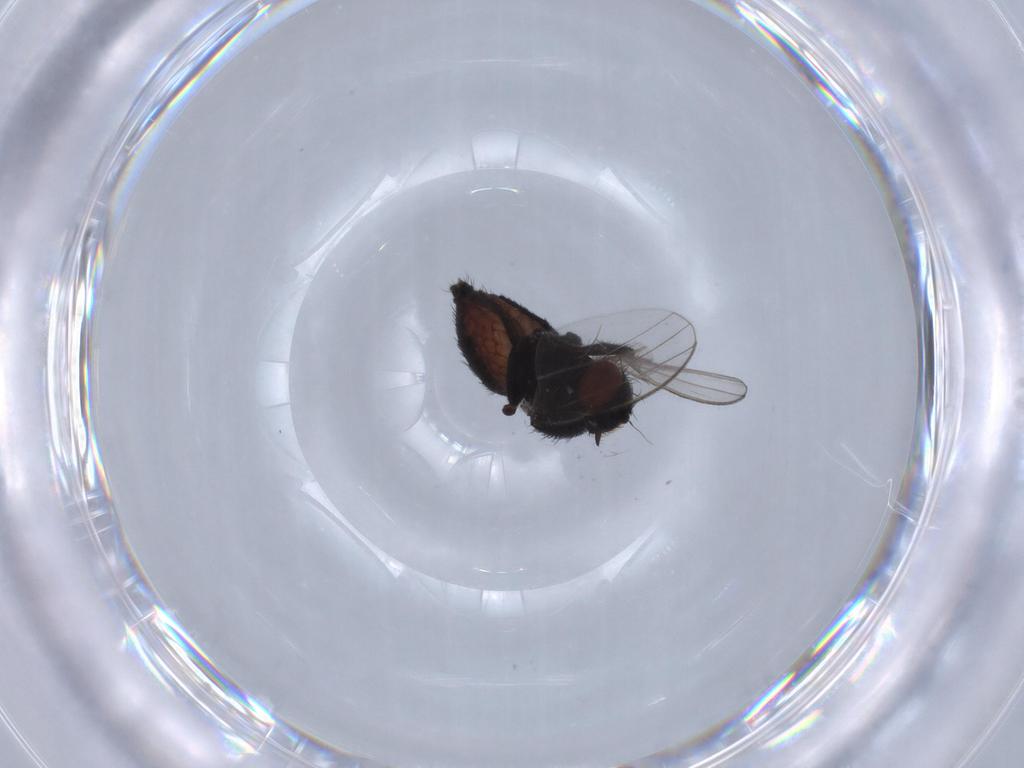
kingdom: Animalia
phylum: Arthropoda
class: Insecta
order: Diptera
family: Chironomidae
